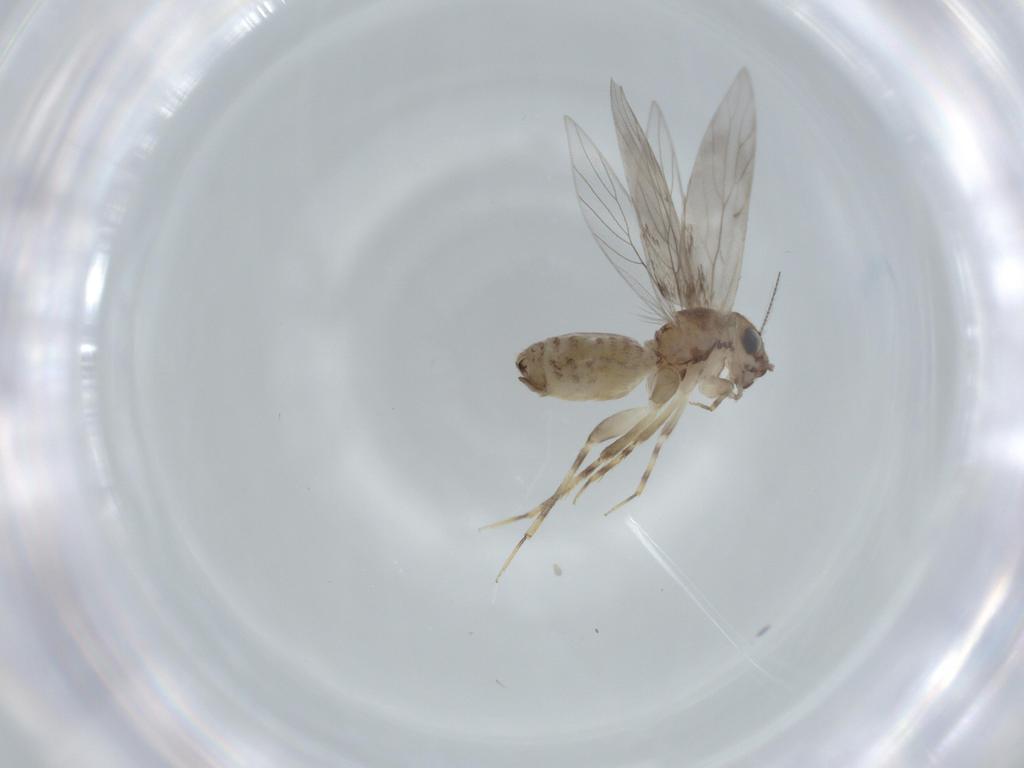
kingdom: Animalia
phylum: Arthropoda
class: Insecta
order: Psocodea
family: Lepidopsocidae
